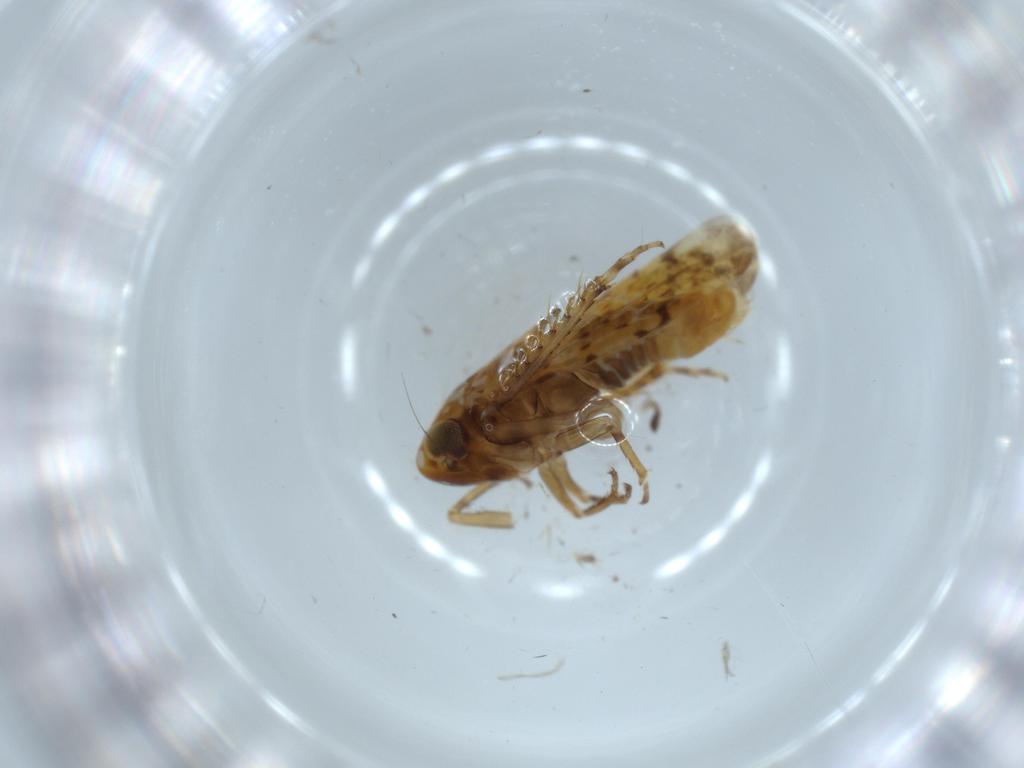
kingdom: Animalia
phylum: Arthropoda
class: Insecta
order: Hemiptera
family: Cicadellidae
